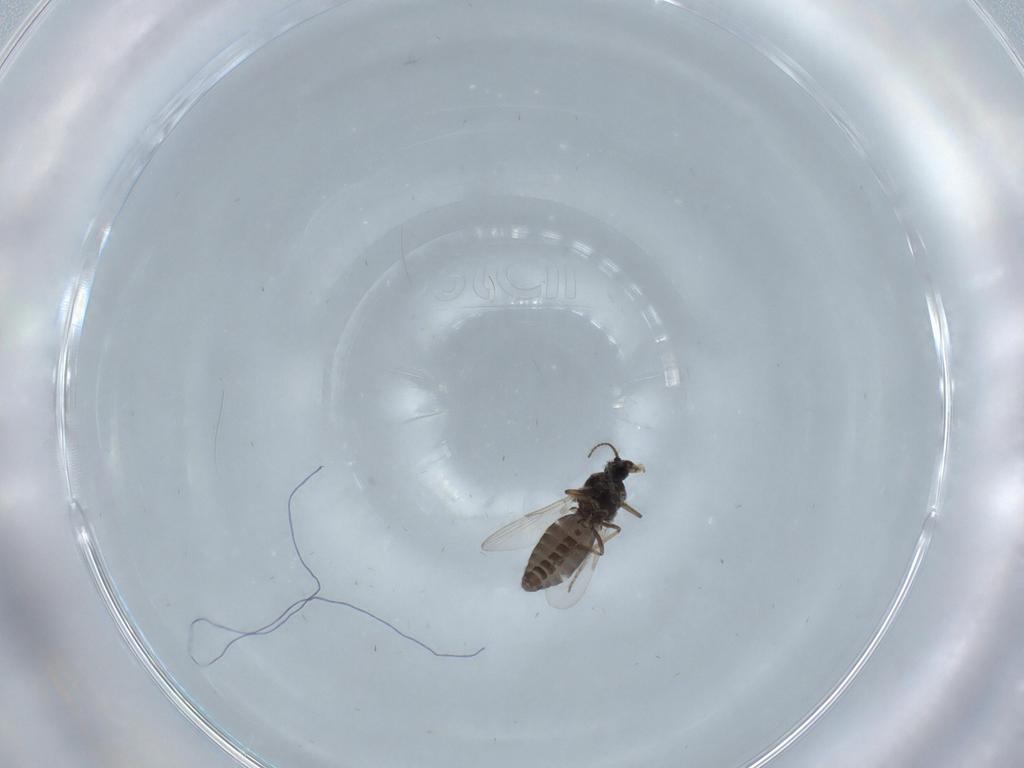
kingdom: Animalia
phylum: Arthropoda
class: Insecta
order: Diptera
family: Ceratopogonidae
